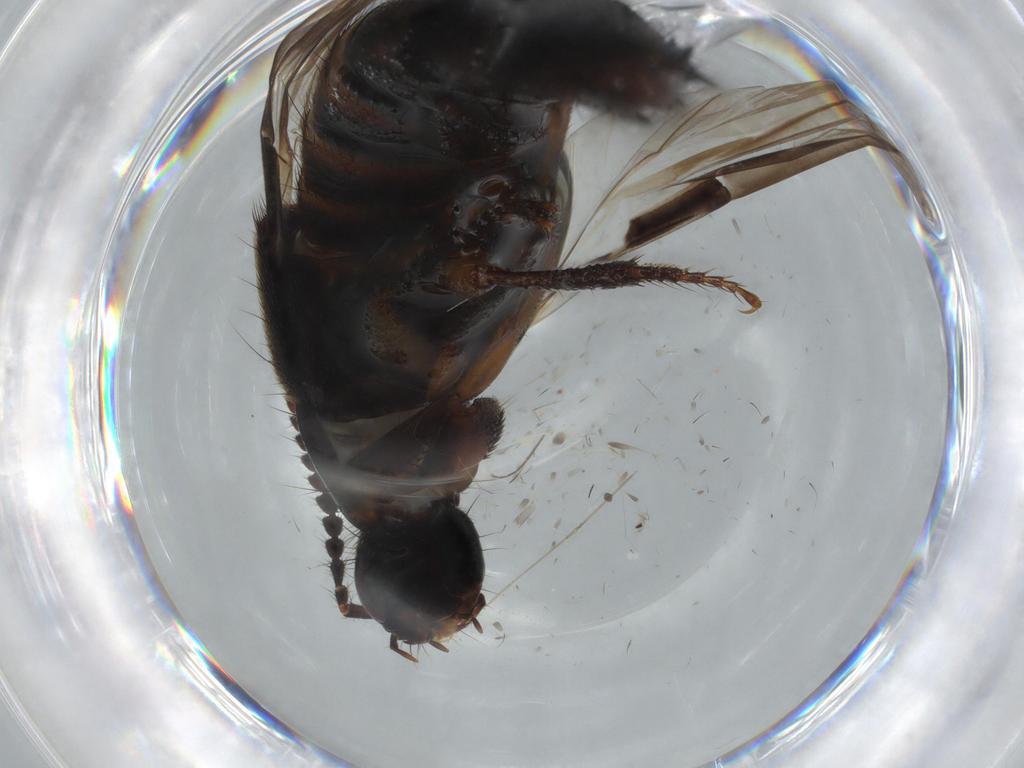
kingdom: Animalia
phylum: Arthropoda
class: Insecta
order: Coleoptera
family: Staphylinidae
